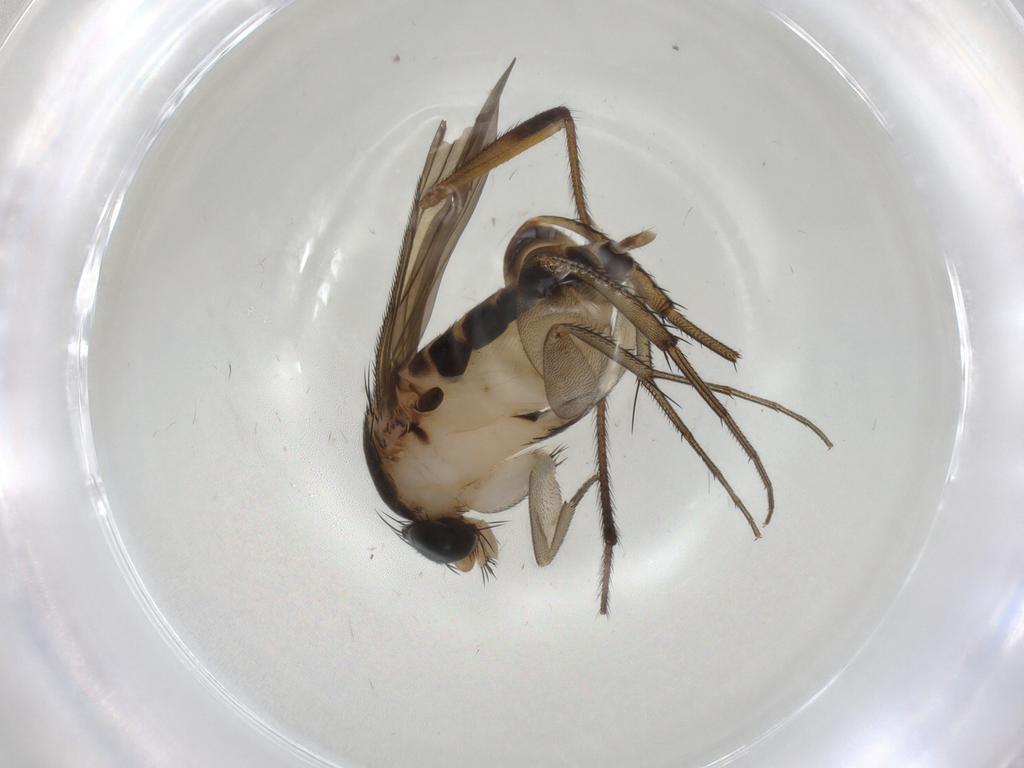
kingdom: Animalia
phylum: Arthropoda
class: Insecta
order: Diptera
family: Phoridae
